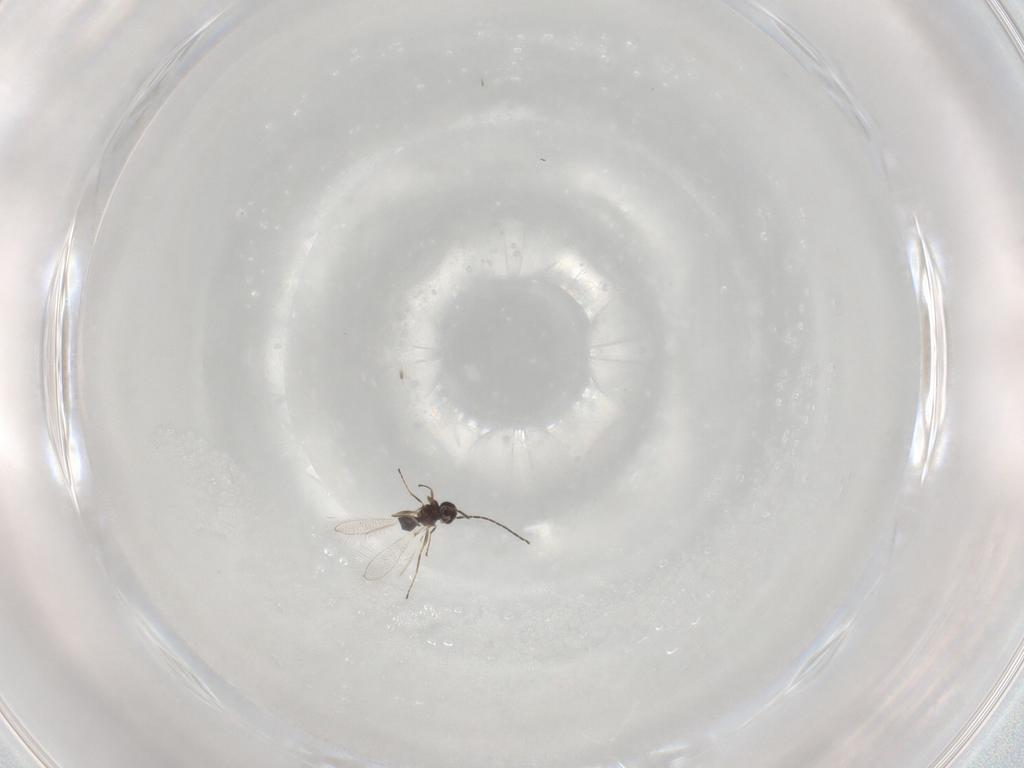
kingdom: Animalia
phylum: Arthropoda
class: Insecta
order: Hymenoptera
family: Mymaridae
